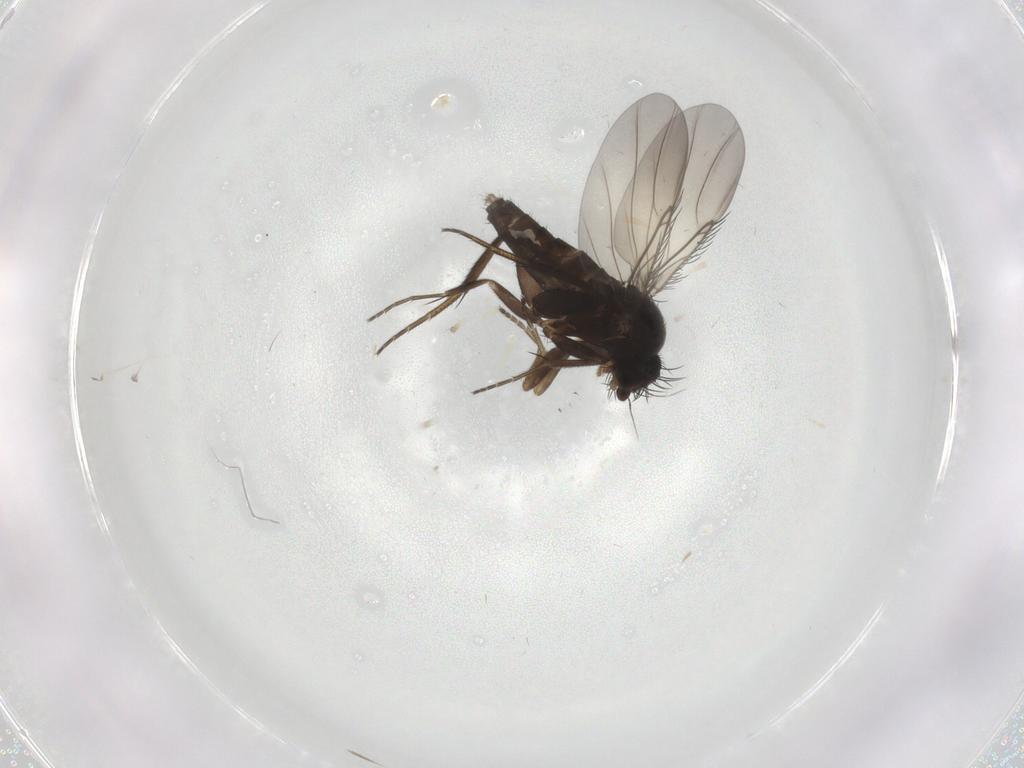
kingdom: Animalia
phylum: Arthropoda
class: Insecta
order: Diptera
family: Phoridae
